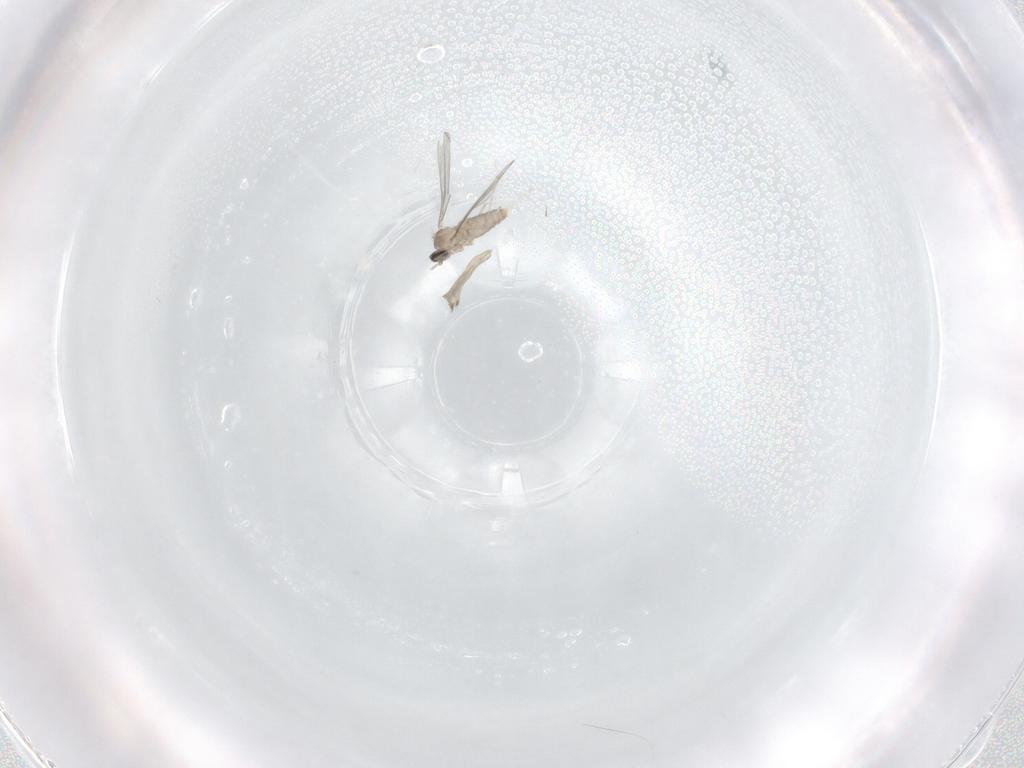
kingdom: Animalia
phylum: Arthropoda
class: Insecta
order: Diptera
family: Cecidomyiidae
